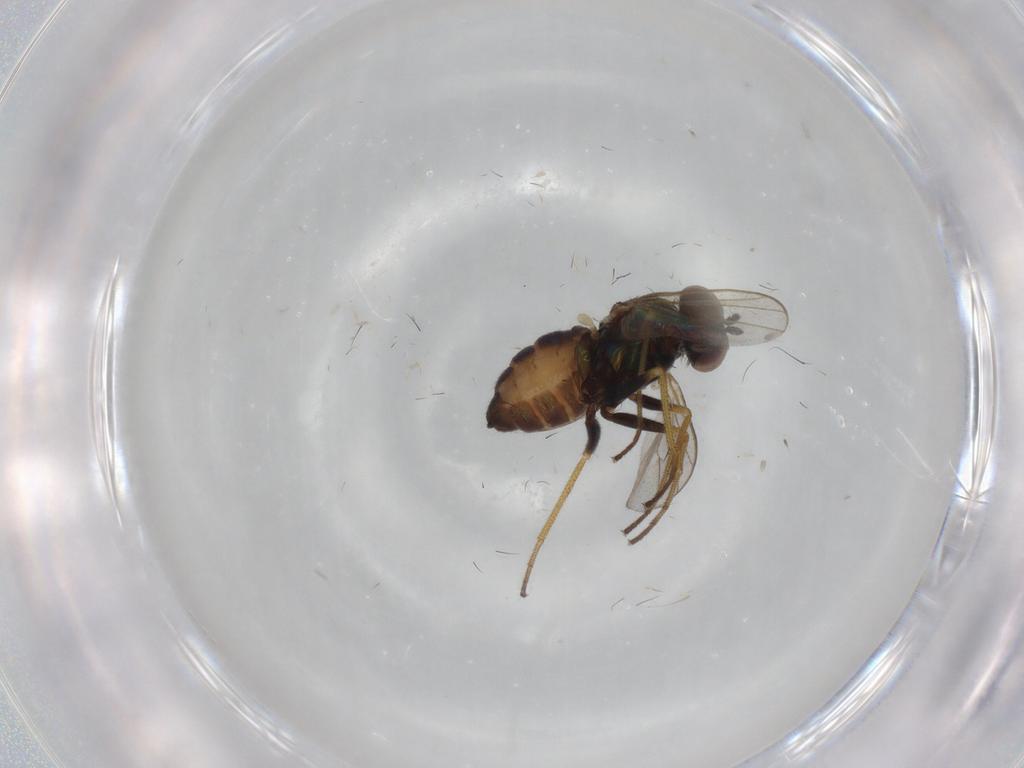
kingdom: Animalia
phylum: Arthropoda
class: Insecta
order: Diptera
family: Dolichopodidae
